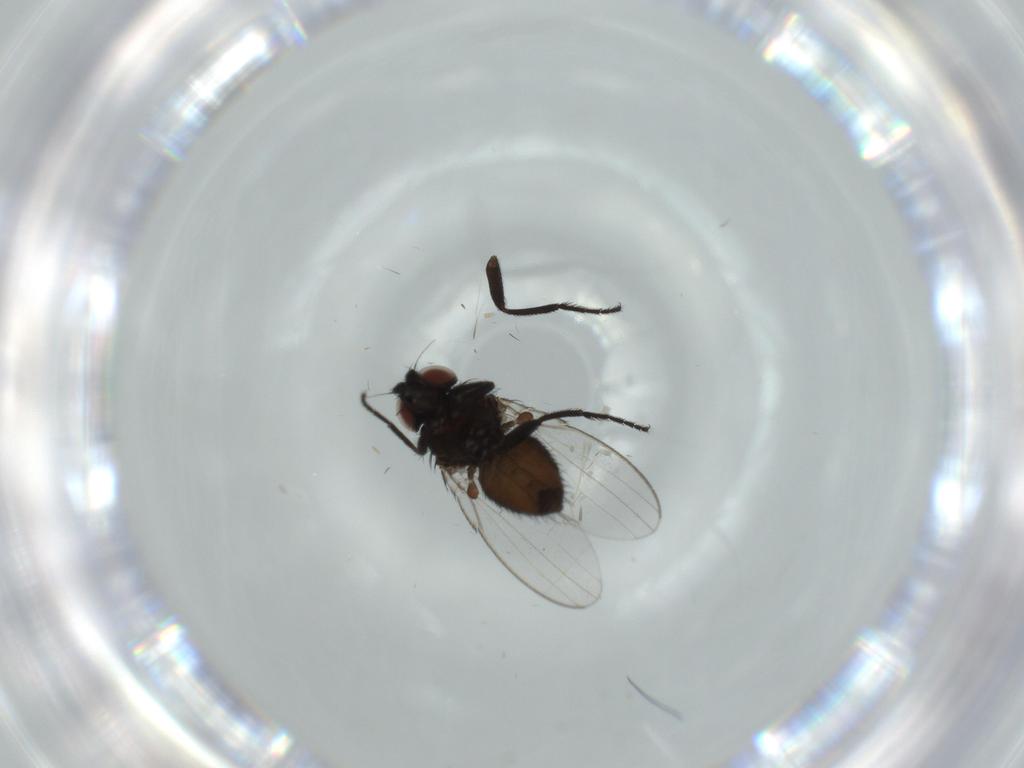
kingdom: Animalia
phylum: Arthropoda
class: Insecta
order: Diptera
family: Milichiidae
